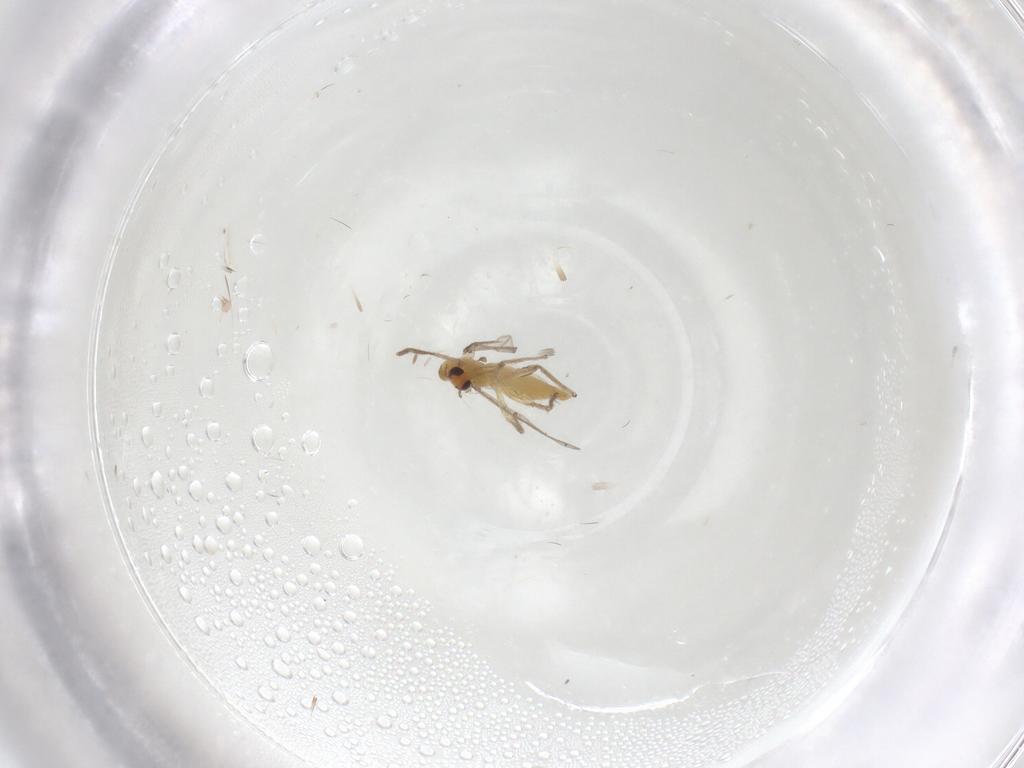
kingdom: Animalia
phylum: Arthropoda
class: Insecta
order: Diptera
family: Chironomidae
